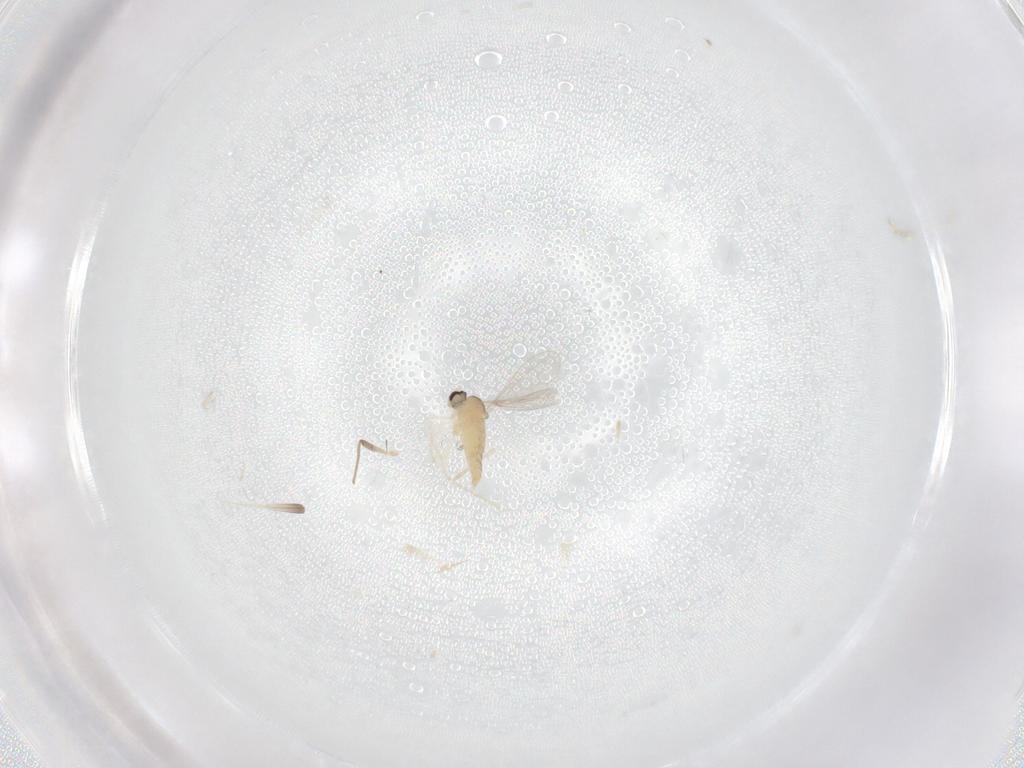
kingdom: Animalia
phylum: Arthropoda
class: Insecta
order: Diptera
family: Cecidomyiidae
